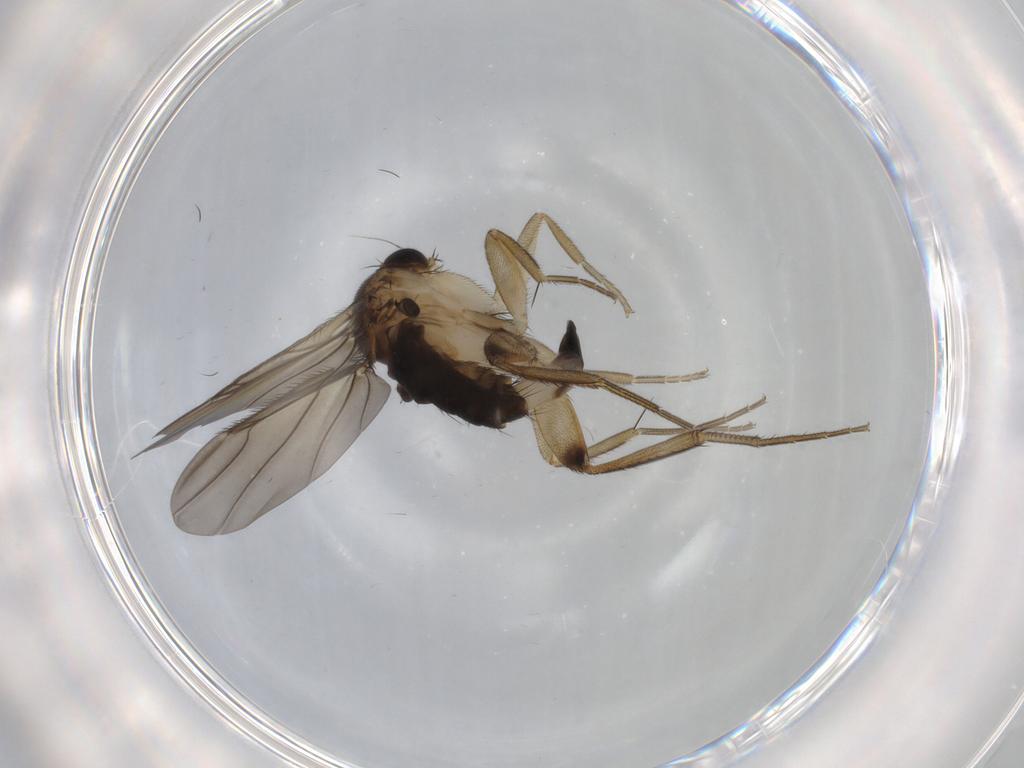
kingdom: Animalia
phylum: Arthropoda
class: Insecta
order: Diptera
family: Phoridae
